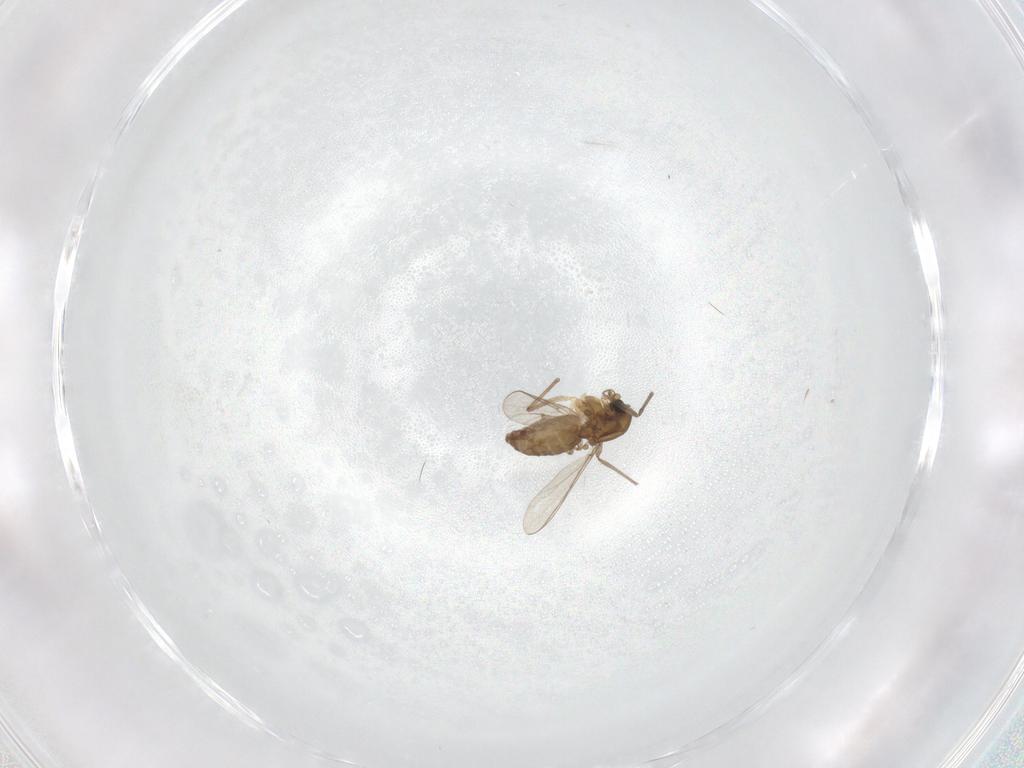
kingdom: Animalia
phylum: Arthropoda
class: Insecta
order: Diptera
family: Chironomidae
